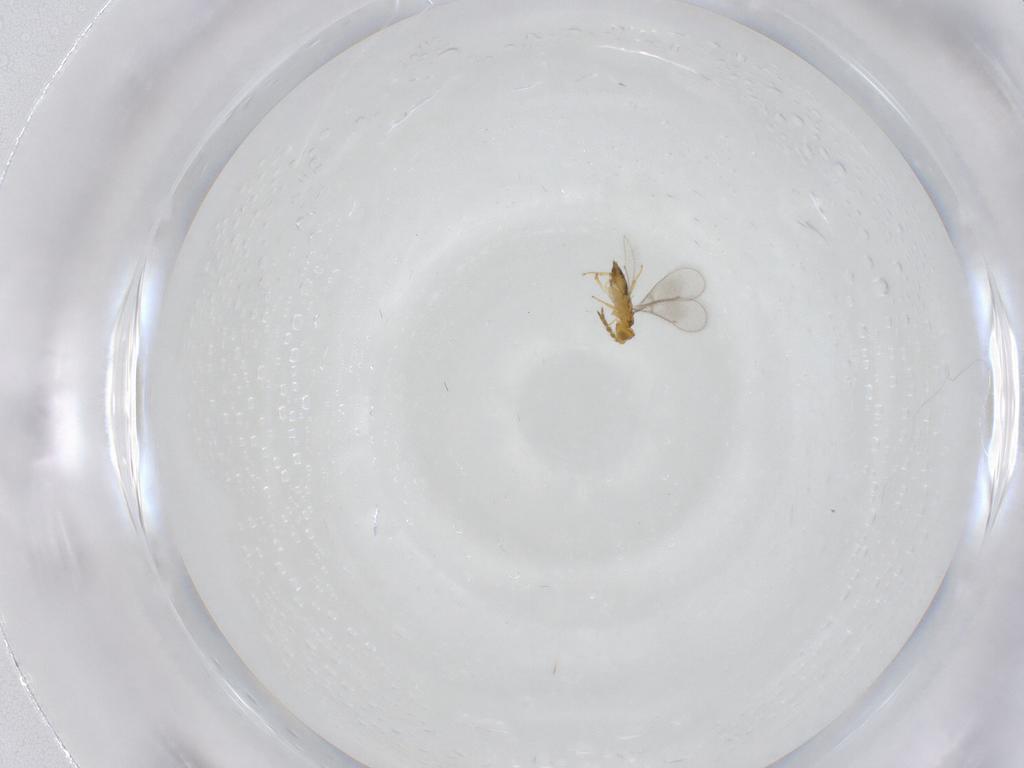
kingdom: Animalia
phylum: Arthropoda
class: Insecta
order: Hymenoptera
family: Aphelinidae
